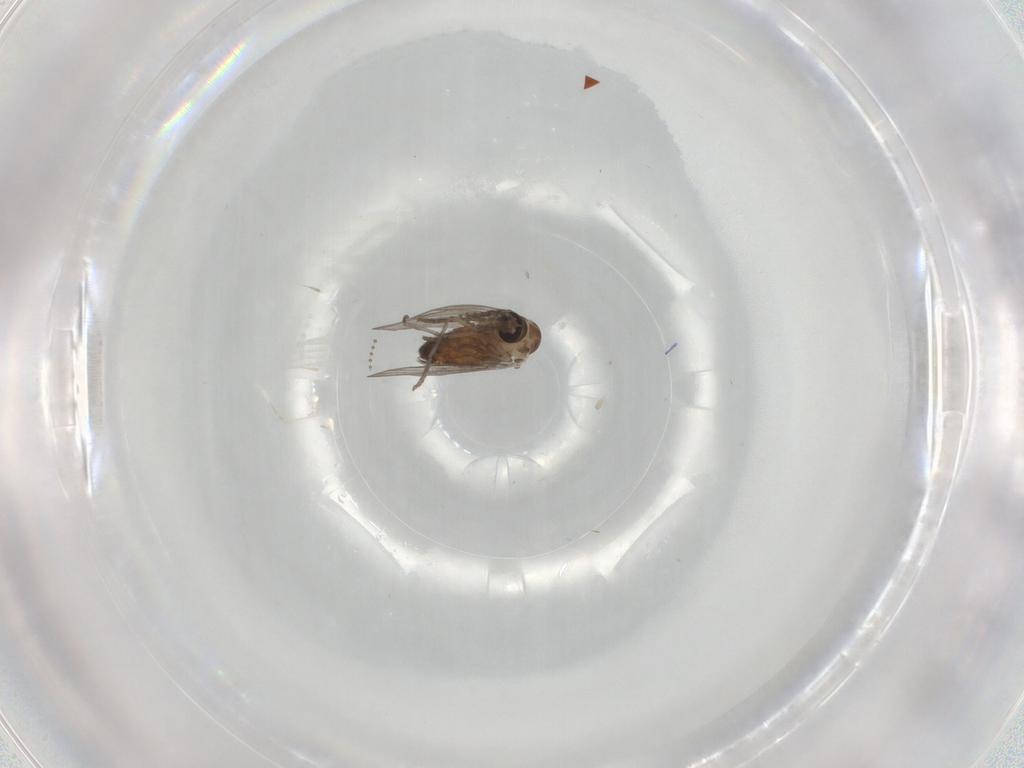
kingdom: Animalia
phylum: Arthropoda
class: Insecta
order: Diptera
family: Psychodidae
